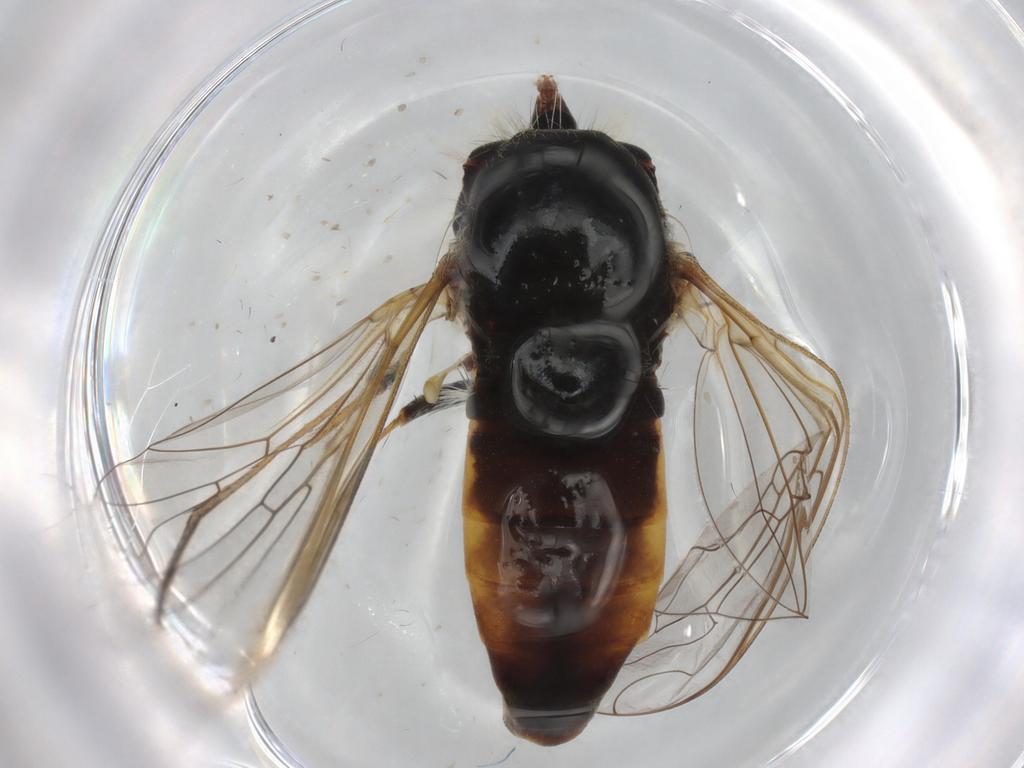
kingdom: Animalia
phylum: Arthropoda
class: Insecta
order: Diptera
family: Bombyliidae
